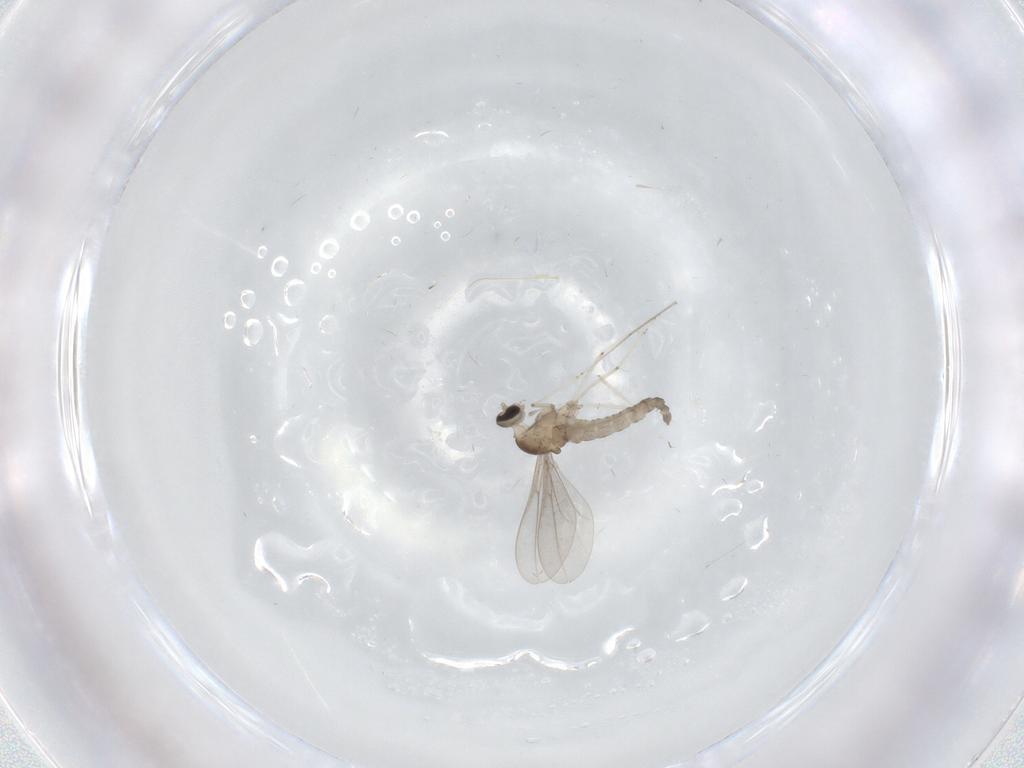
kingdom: Animalia
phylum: Arthropoda
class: Insecta
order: Diptera
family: Cecidomyiidae
